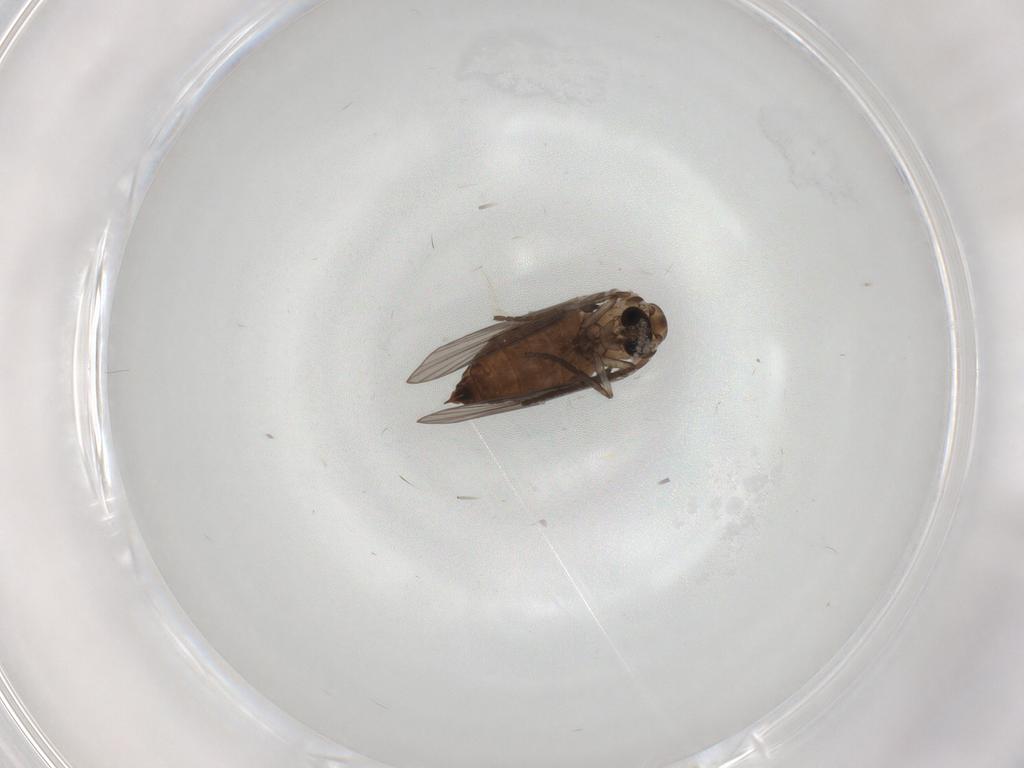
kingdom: Animalia
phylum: Arthropoda
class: Insecta
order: Diptera
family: Psychodidae
